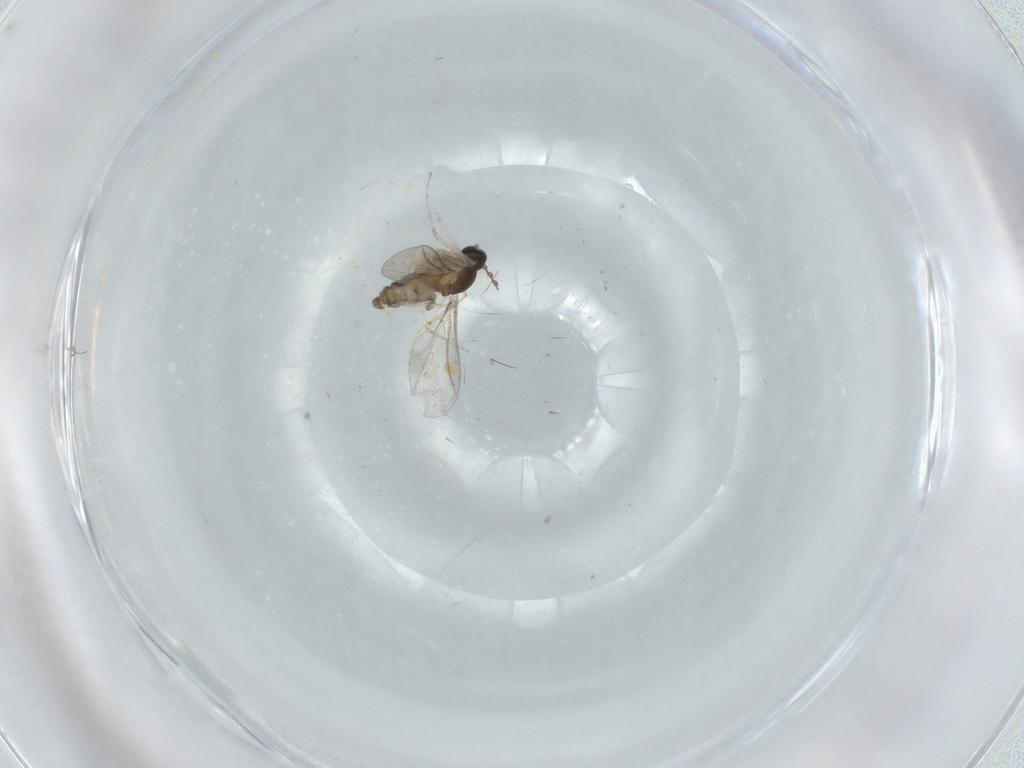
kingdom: Animalia
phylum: Arthropoda
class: Insecta
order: Diptera
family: Cecidomyiidae
